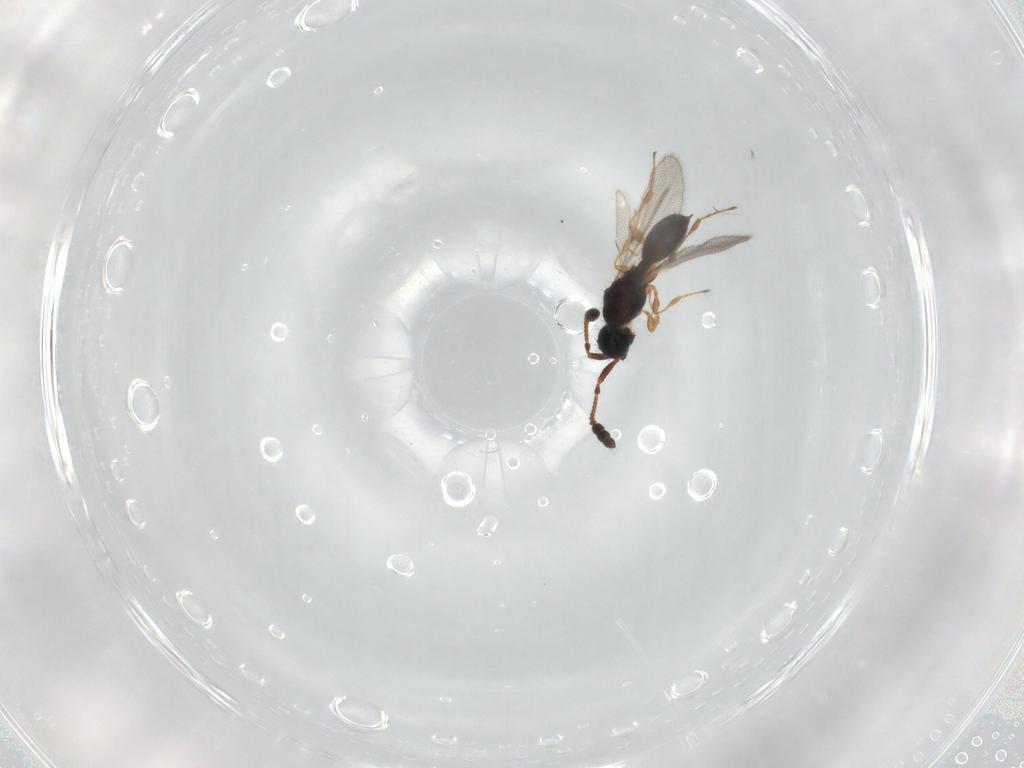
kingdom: Animalia
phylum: Arthropoda
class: Insecta
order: Hymenoptera
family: Diapriidae
